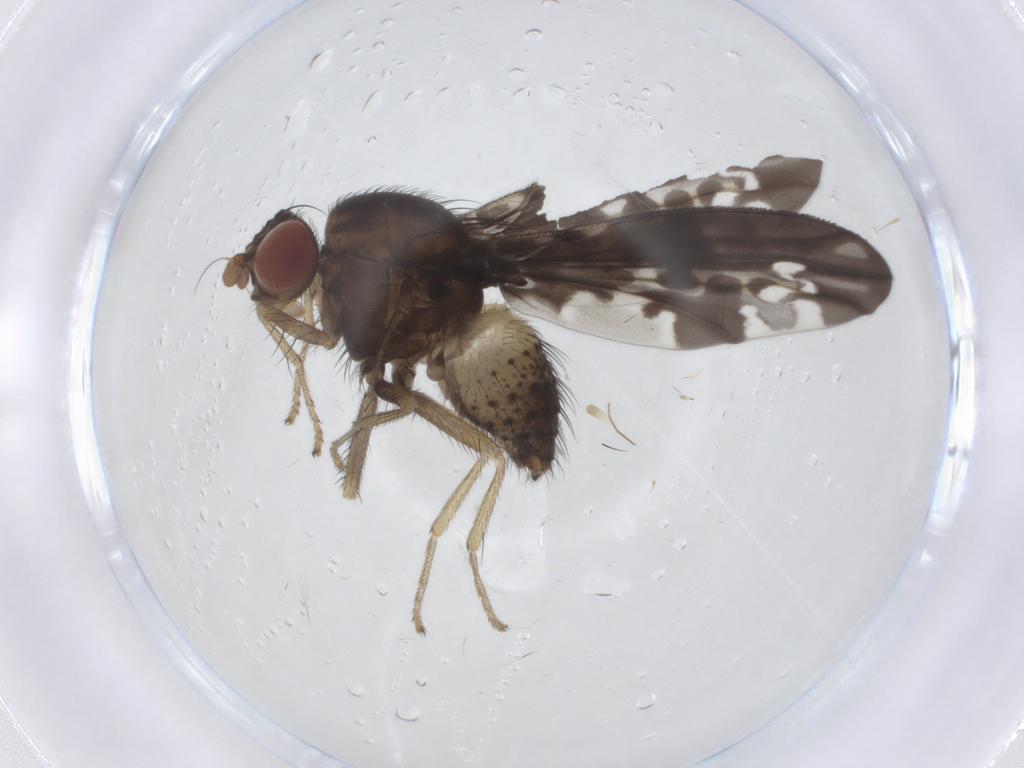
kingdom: Animalia
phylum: Arthropoda
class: Insecta
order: Diptera
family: Chironomidae
